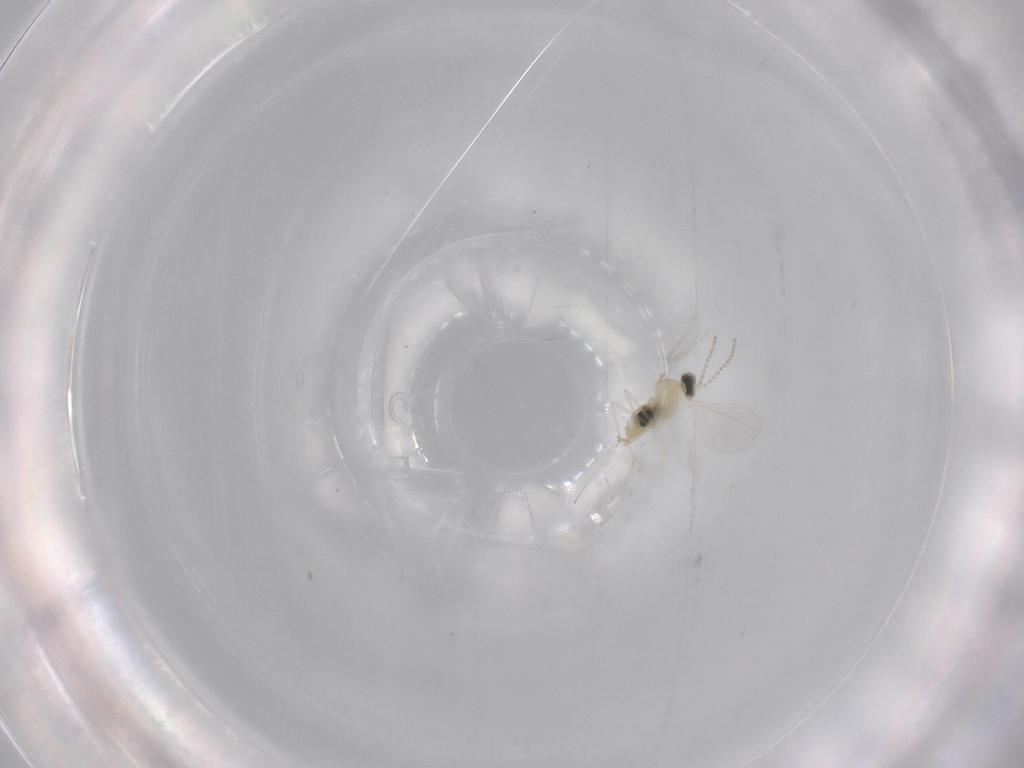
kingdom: Animalia
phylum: Arthropoda
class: Insecta
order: Diptera
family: Cecidomyiidae
